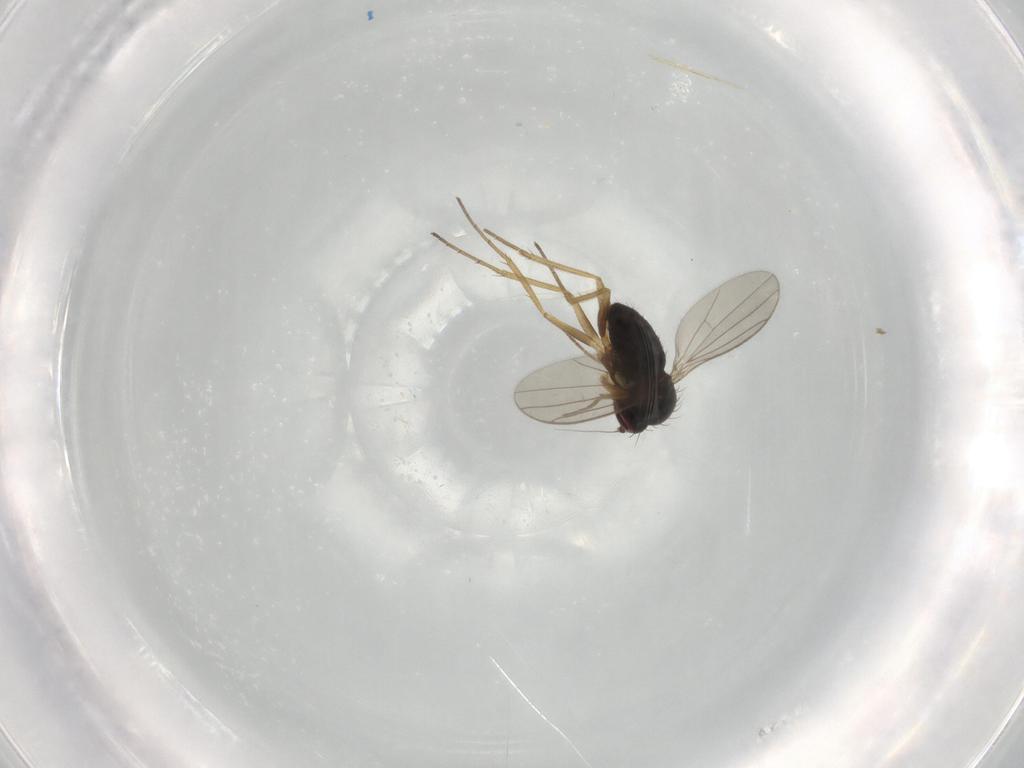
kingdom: Animalia
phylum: Arthropoda
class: Insecta
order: Diptera
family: Dolichopodidae
